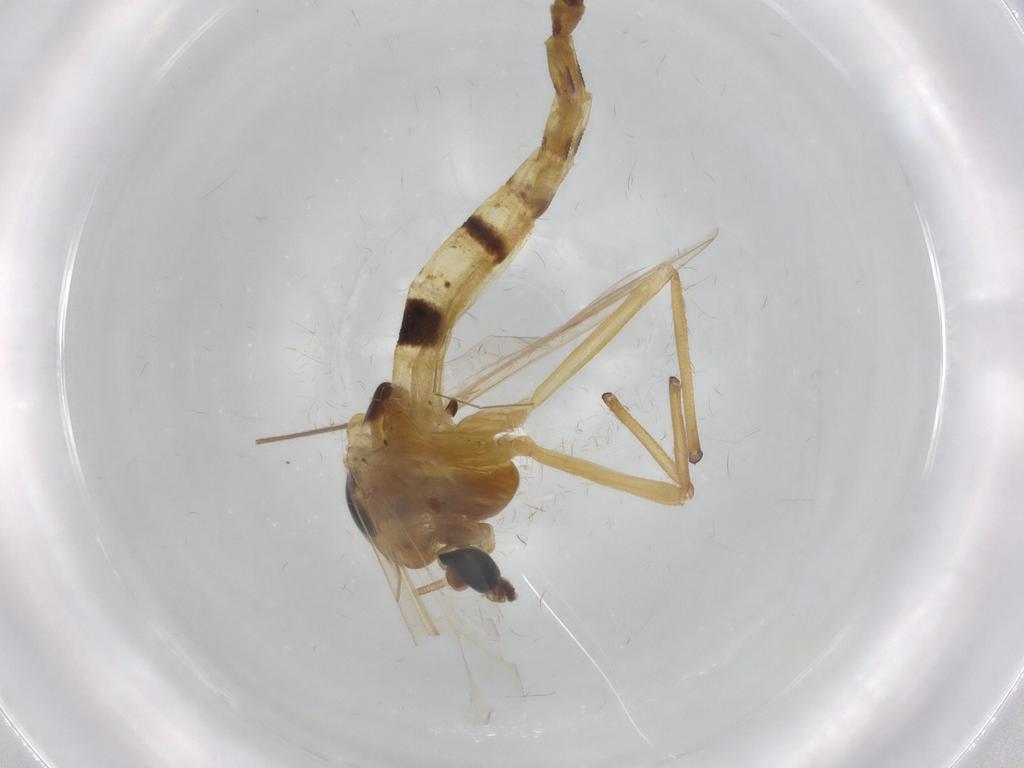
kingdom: Animalia
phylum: Arthropoda
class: Insecta
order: Diptera
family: Chironomidae
